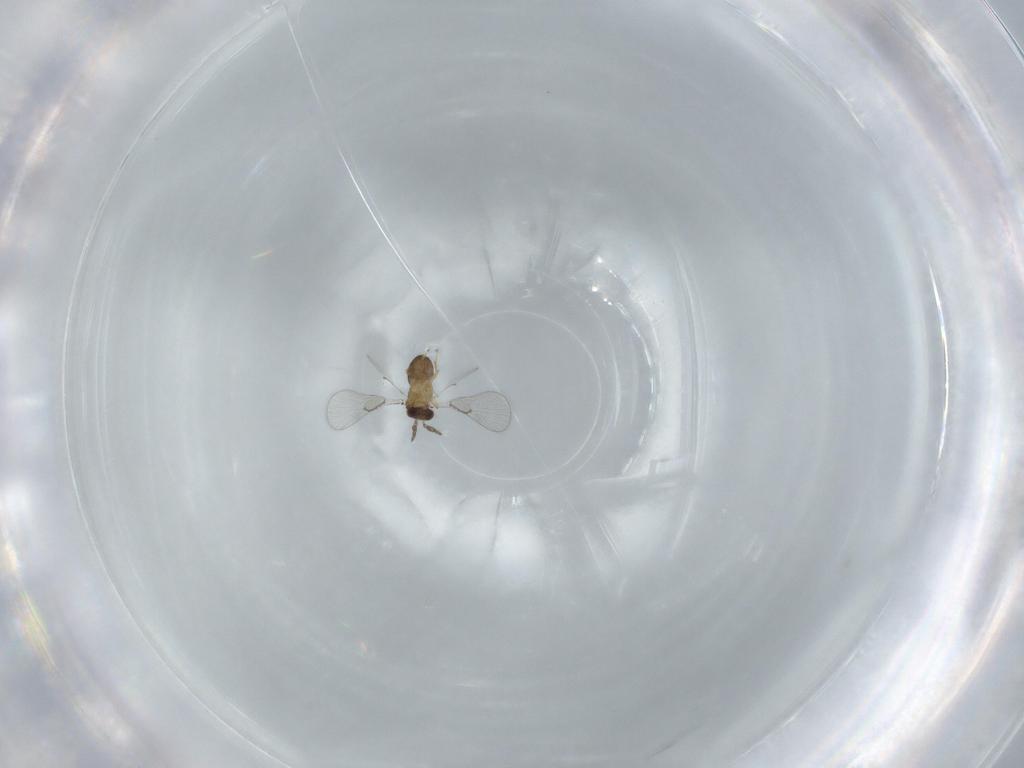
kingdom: Animalia
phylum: Arthropoda
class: Insecta
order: Hymenoptera
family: Trichogrammatidae
